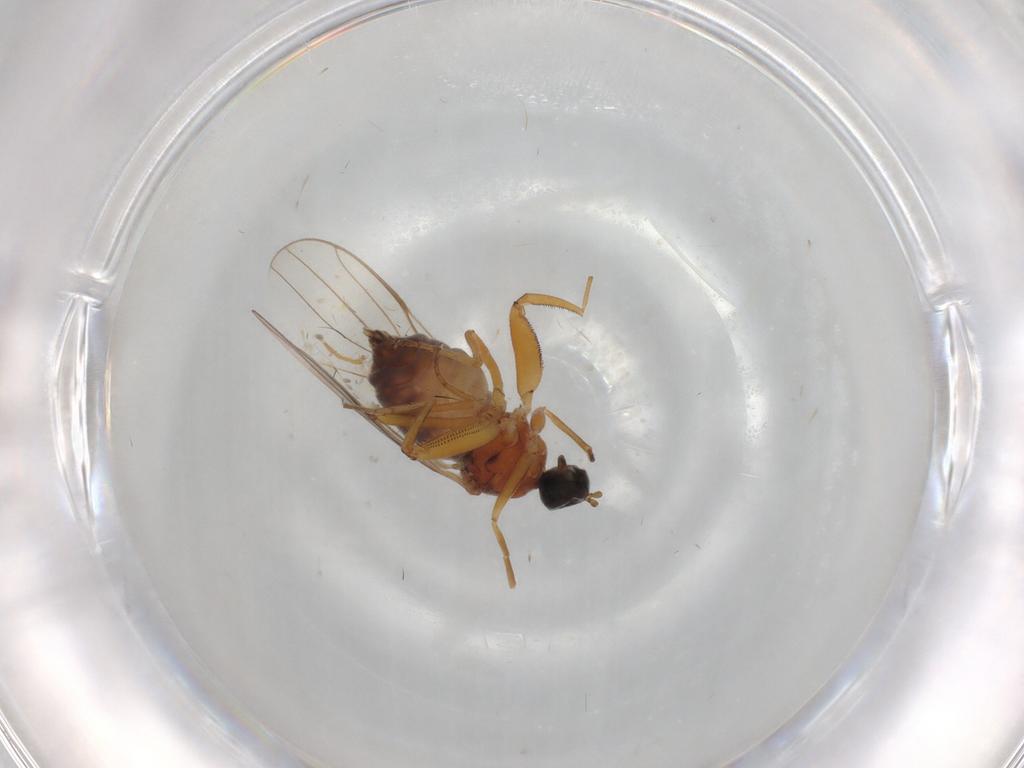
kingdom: Animalia
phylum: Arthropoda
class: Insecta
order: Diptera
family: Hybotidae
